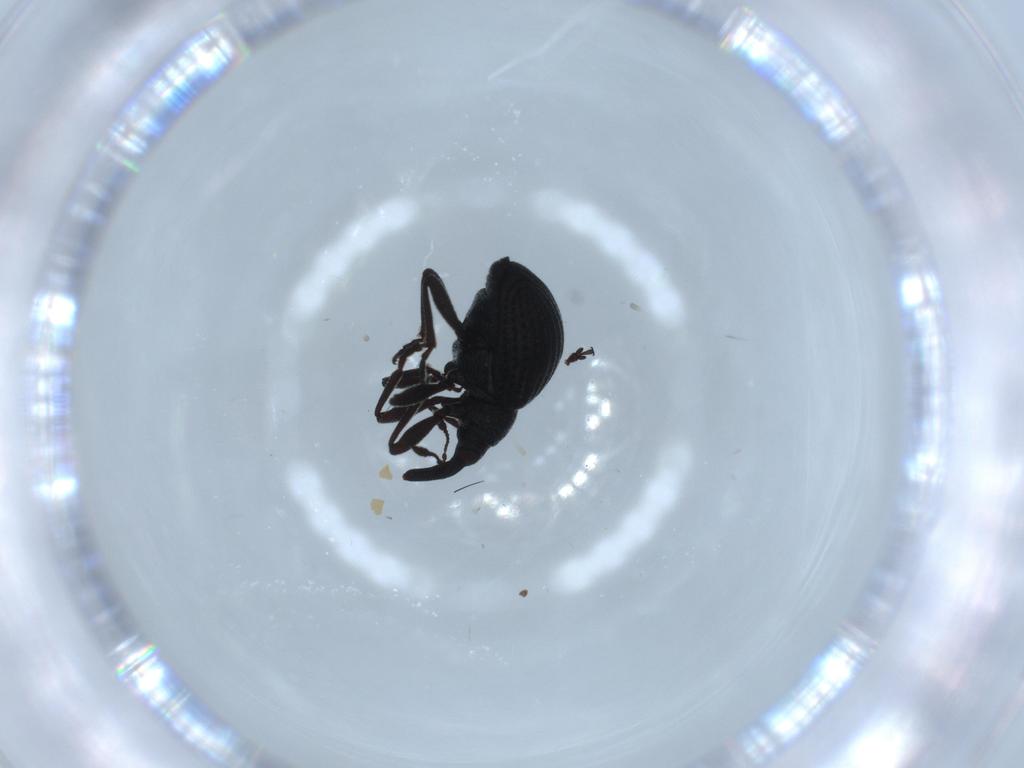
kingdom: Animalia
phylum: Arthropoda
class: Insecta
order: Coleoptera
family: Brentidae
